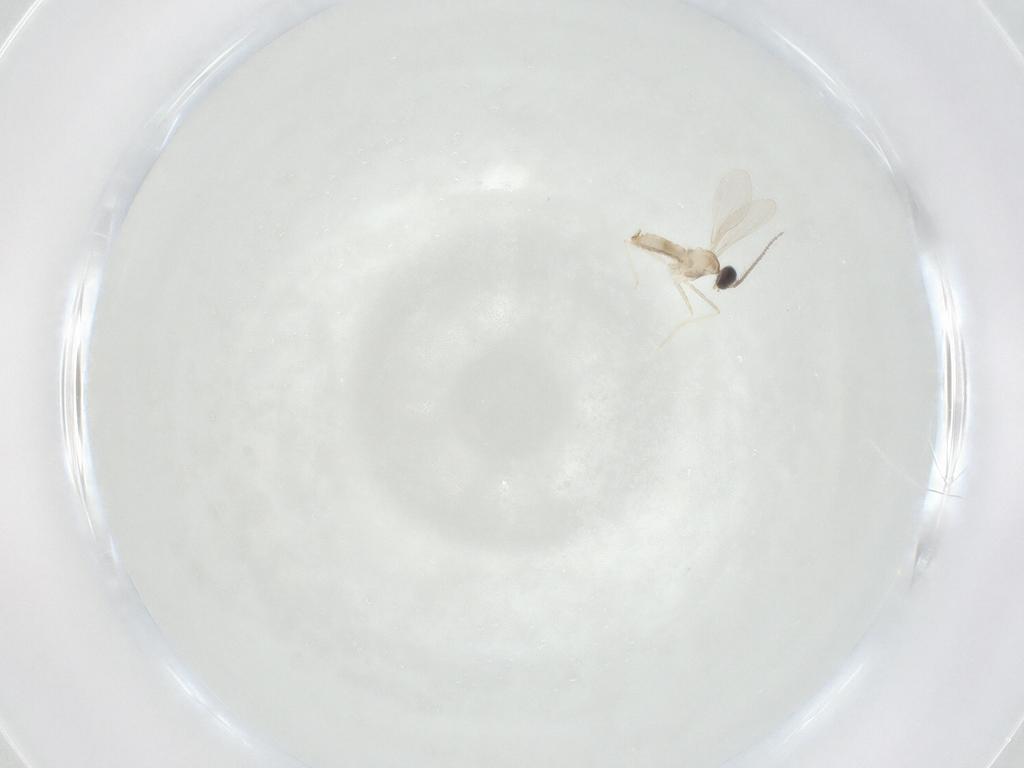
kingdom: Animalia
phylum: Arthropoda
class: Insecta
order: Diptera
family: Cecidomyiidae
